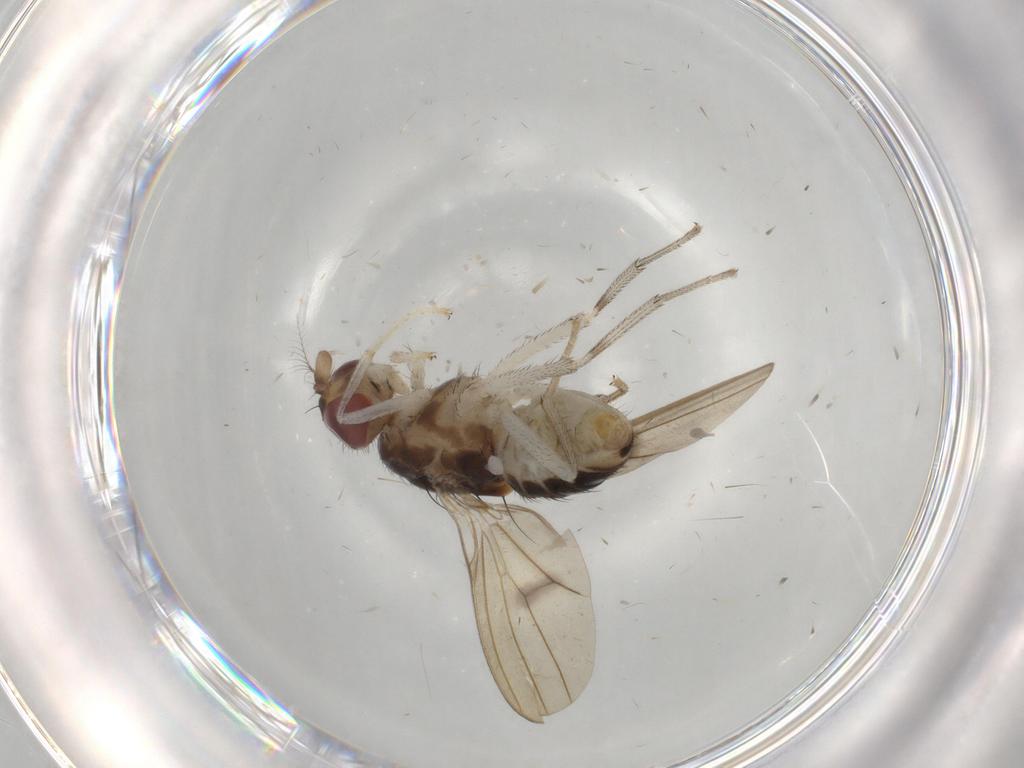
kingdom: Animalia
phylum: Arthropoda
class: Insecta
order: Diptera
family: Lauxaniidae
